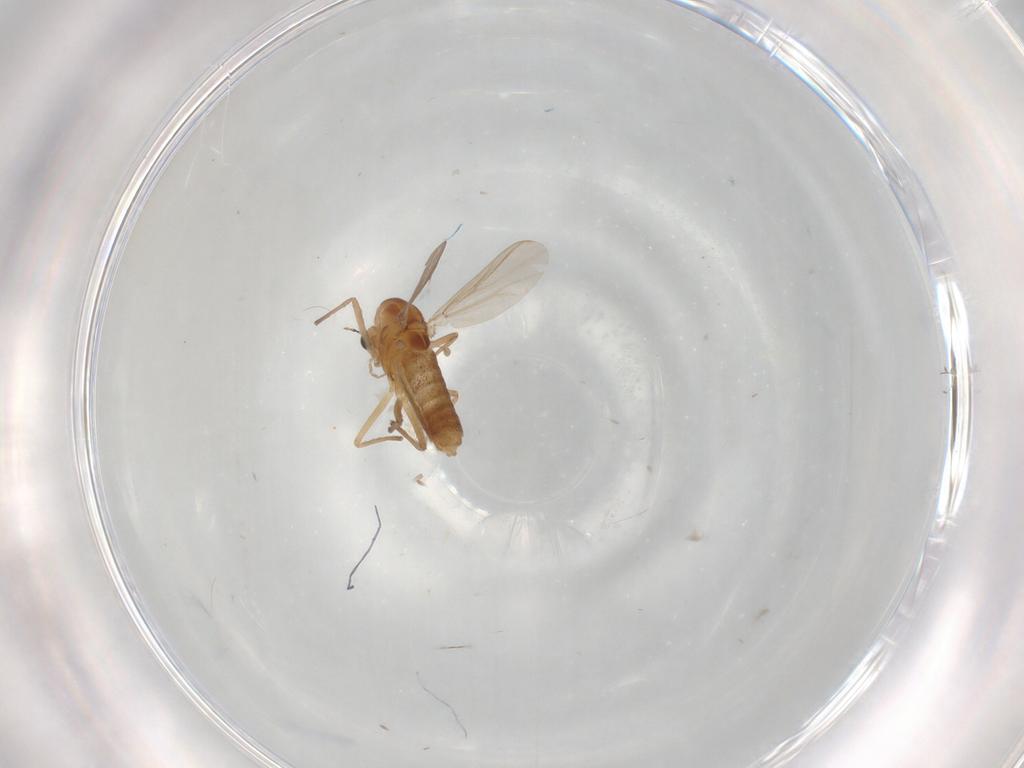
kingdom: Animalia
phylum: Arthropoda
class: Insecta
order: Diptera
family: Chironomidae
